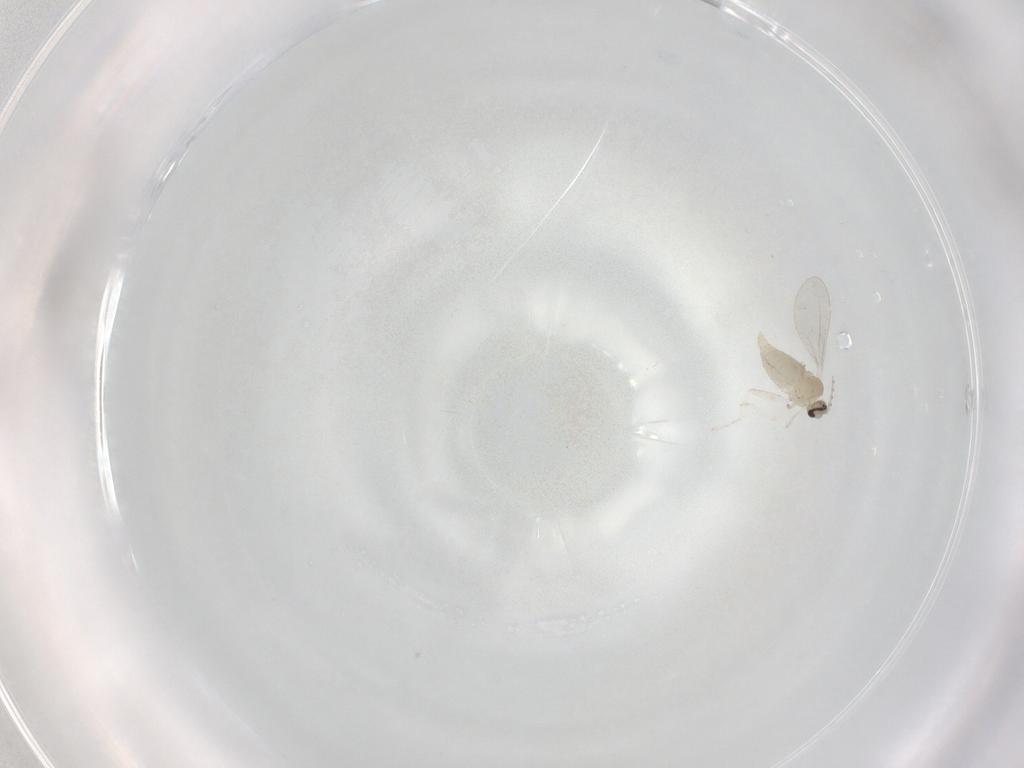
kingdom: Animalia
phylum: Arthropoda
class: Insecta
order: Diptera
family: Cecidomyiidae
